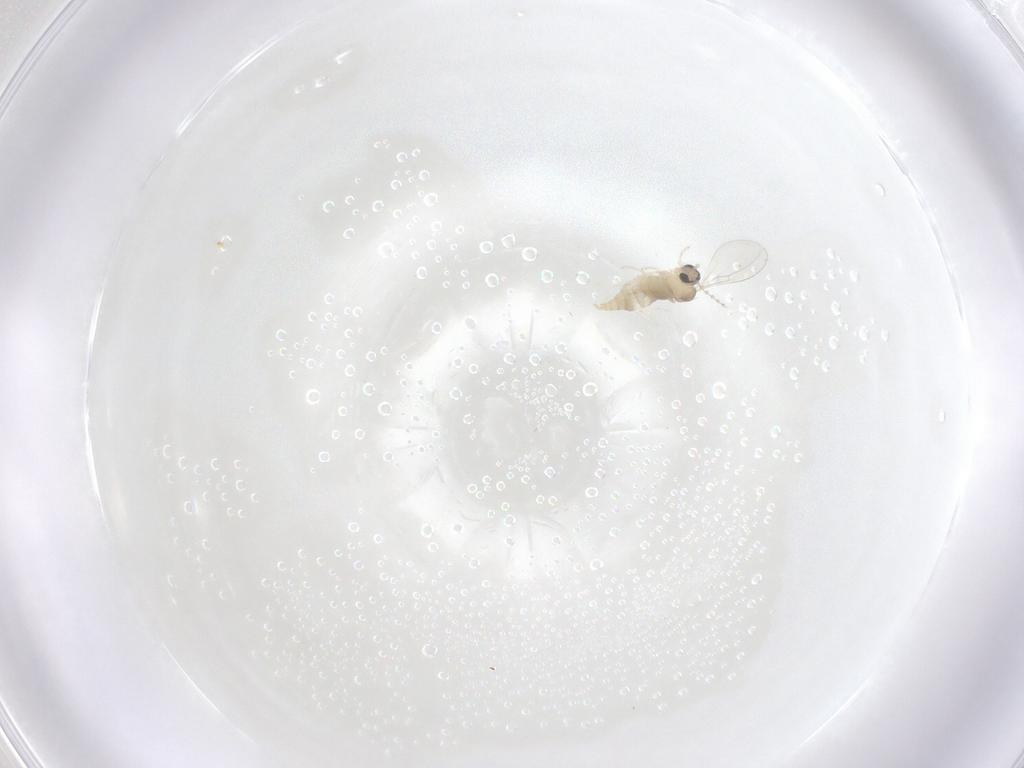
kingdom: Animalia
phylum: Arthropoda
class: Insecta
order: Diptera
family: Cecidomyiidae
